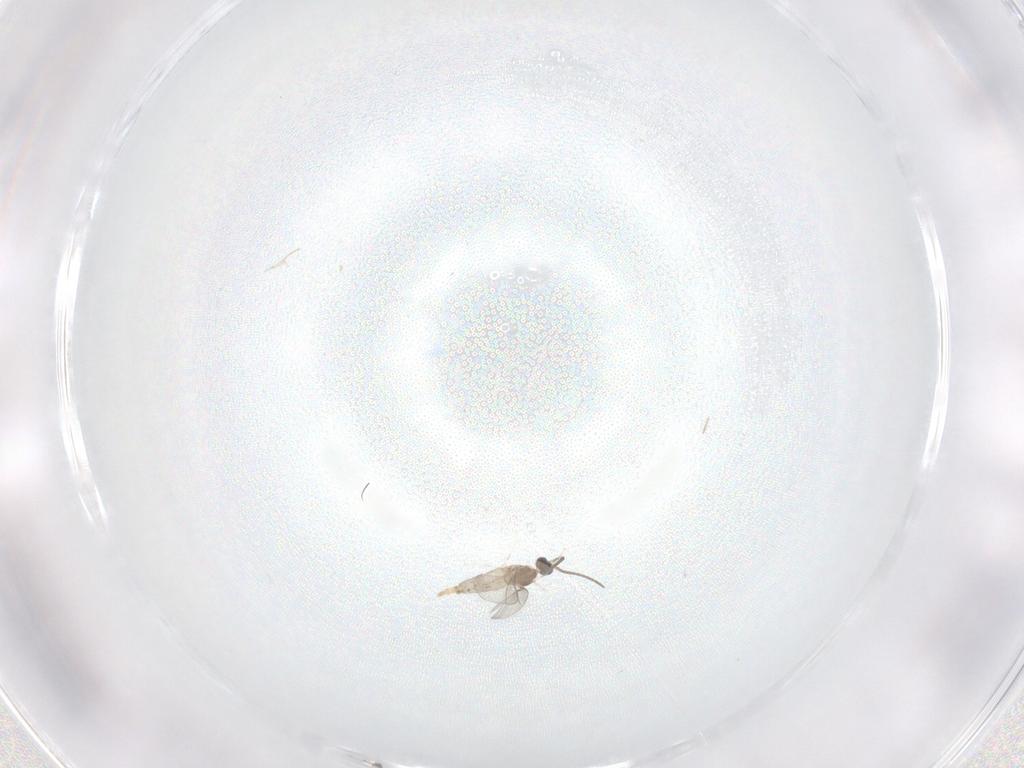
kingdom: Animalia
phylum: Arthropoda
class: Insecta
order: Diptera
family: Cecidomyiidae
